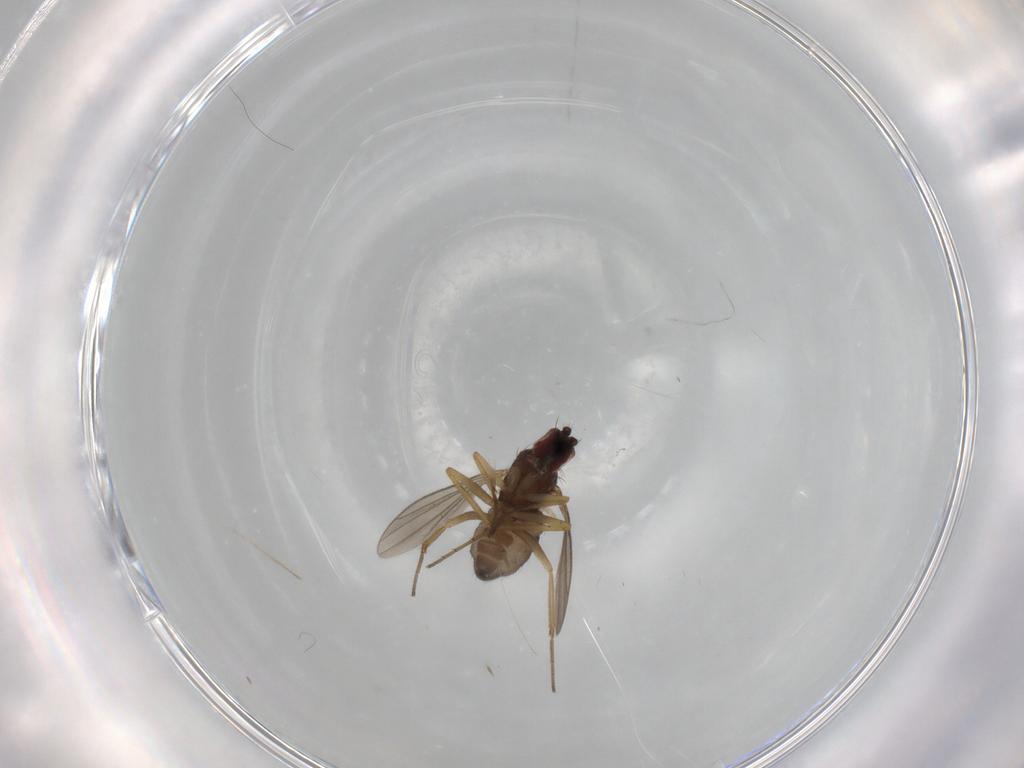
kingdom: Animalia
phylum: Arthropoda
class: Insecta
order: Diptera
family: Dolichopodidae
